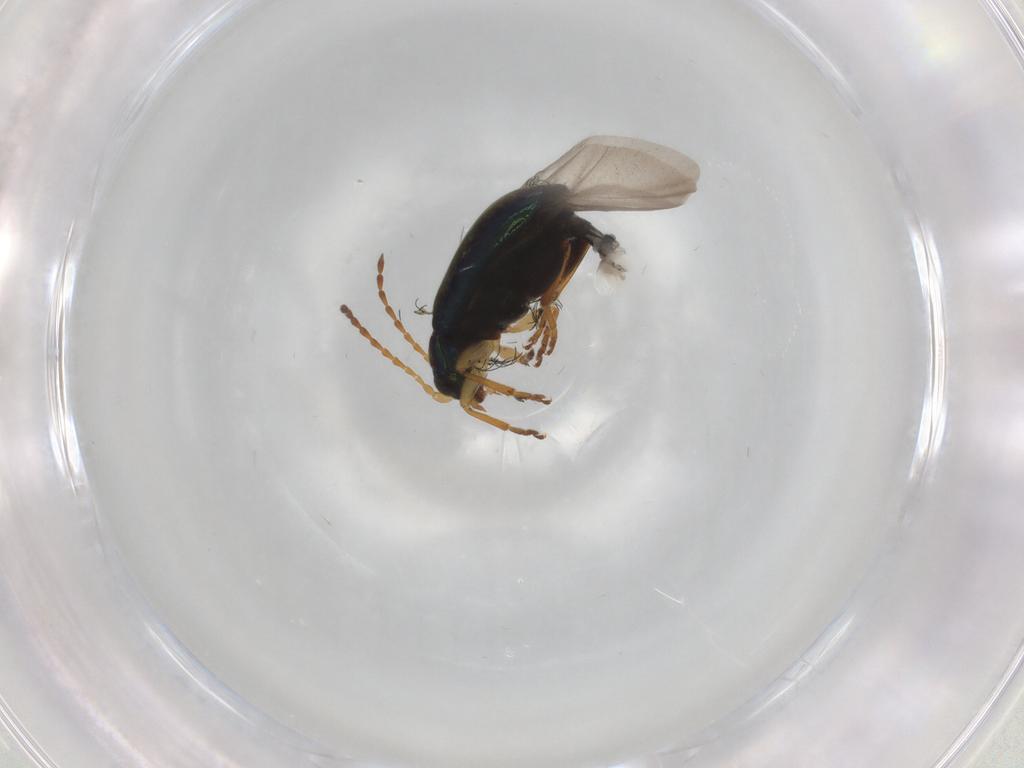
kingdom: Animalia
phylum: Arthropoda
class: Insecta
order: Coleoptera
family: Chrysomelidae
